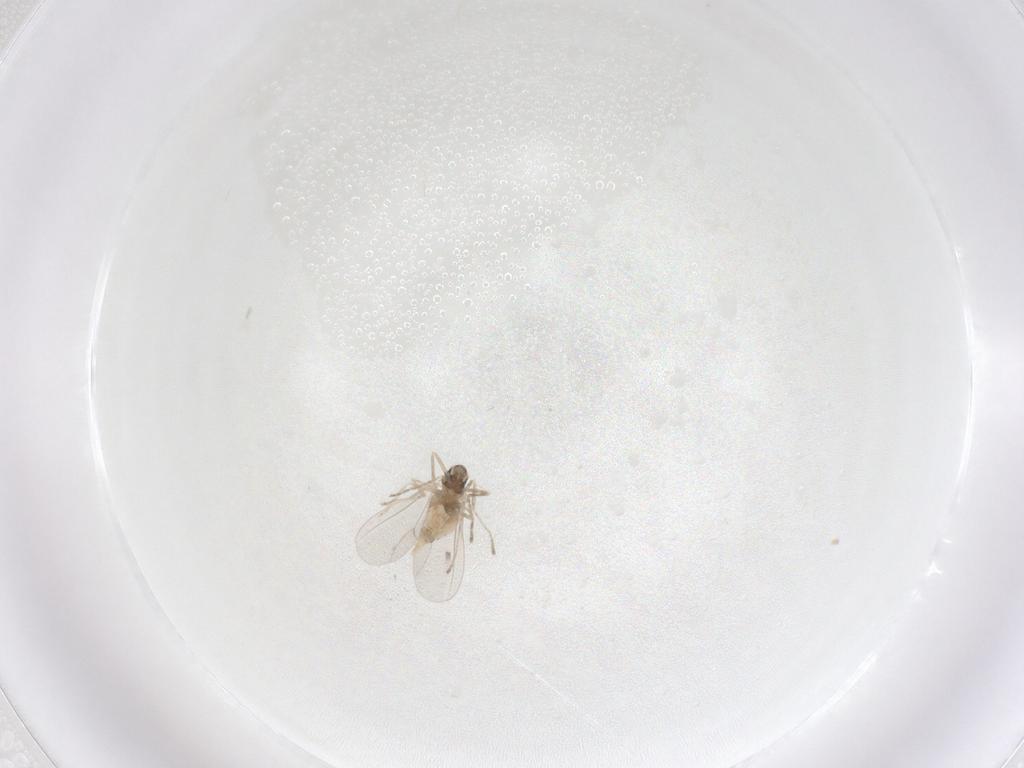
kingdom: Animalia
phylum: Arthropoda
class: Insecta
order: Diptera
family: Cecidomyiidae
